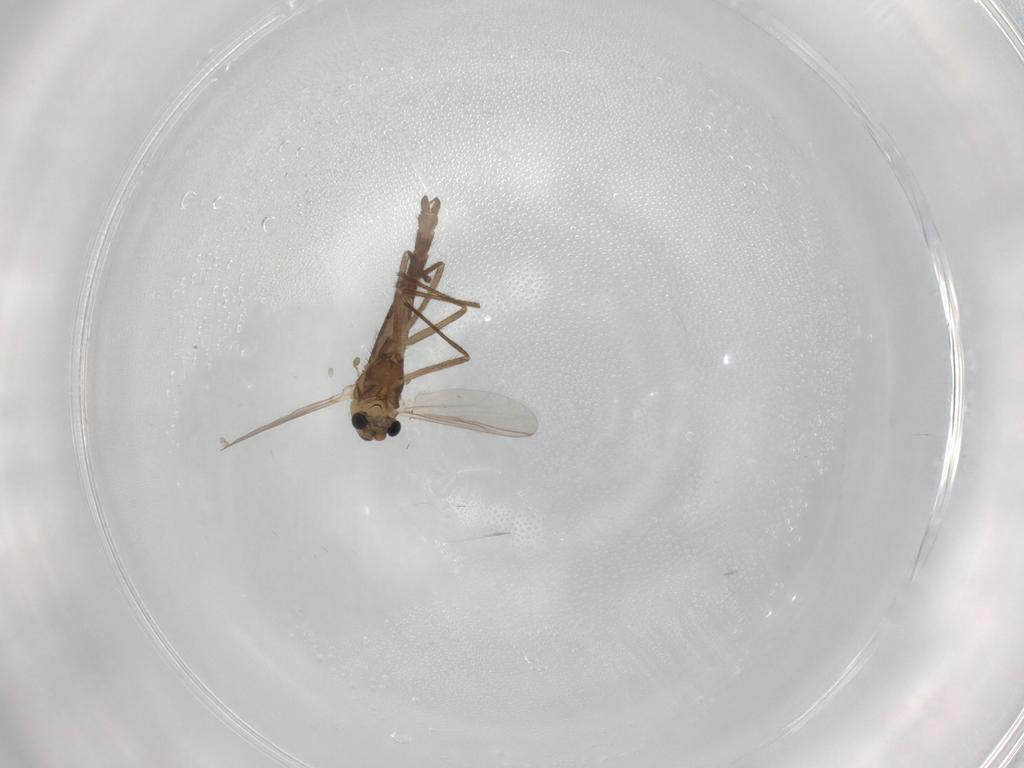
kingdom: Animalia
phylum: Arthropoda
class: Insecta
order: Diptera
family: Chironomidae
